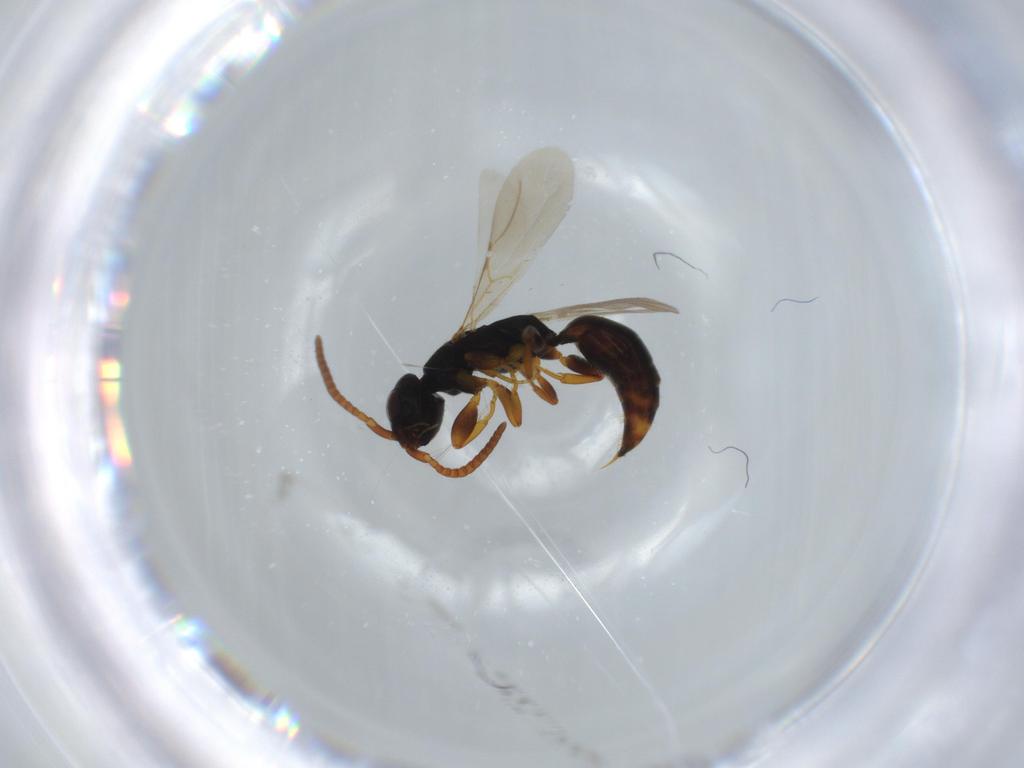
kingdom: Animalia
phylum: Arthropoda
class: Insecta
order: Hymenoptera
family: Bethylidae
